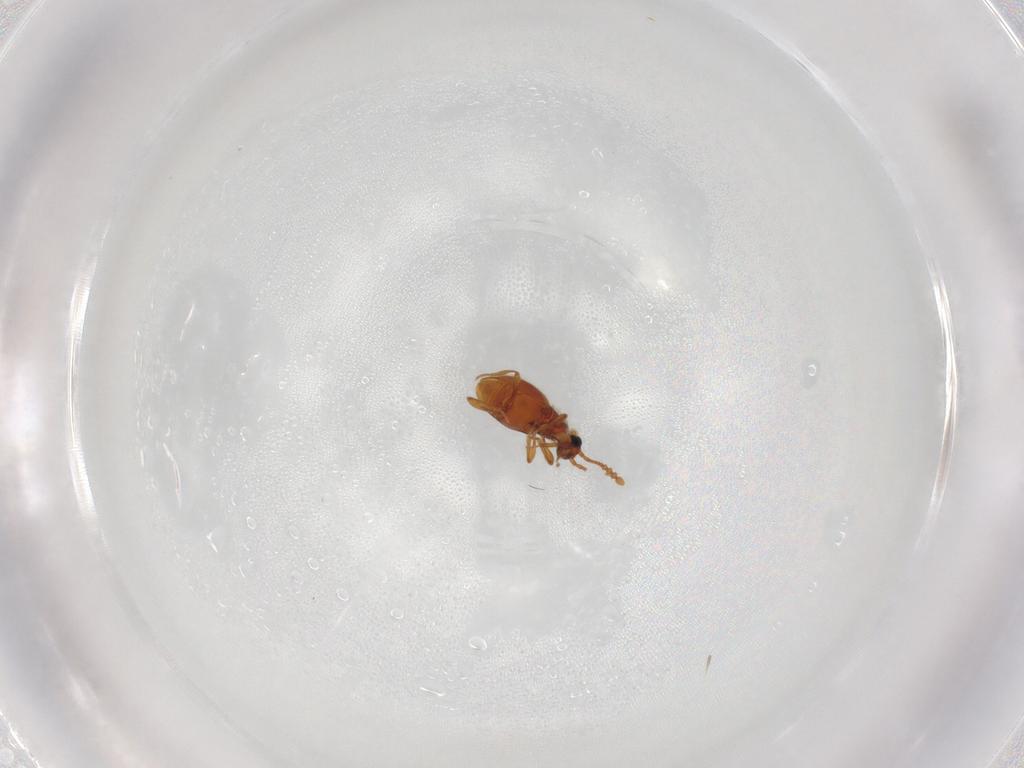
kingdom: Animalia
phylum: Arthropoda
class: Insecta
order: Coleoptera
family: Staphylinidae
